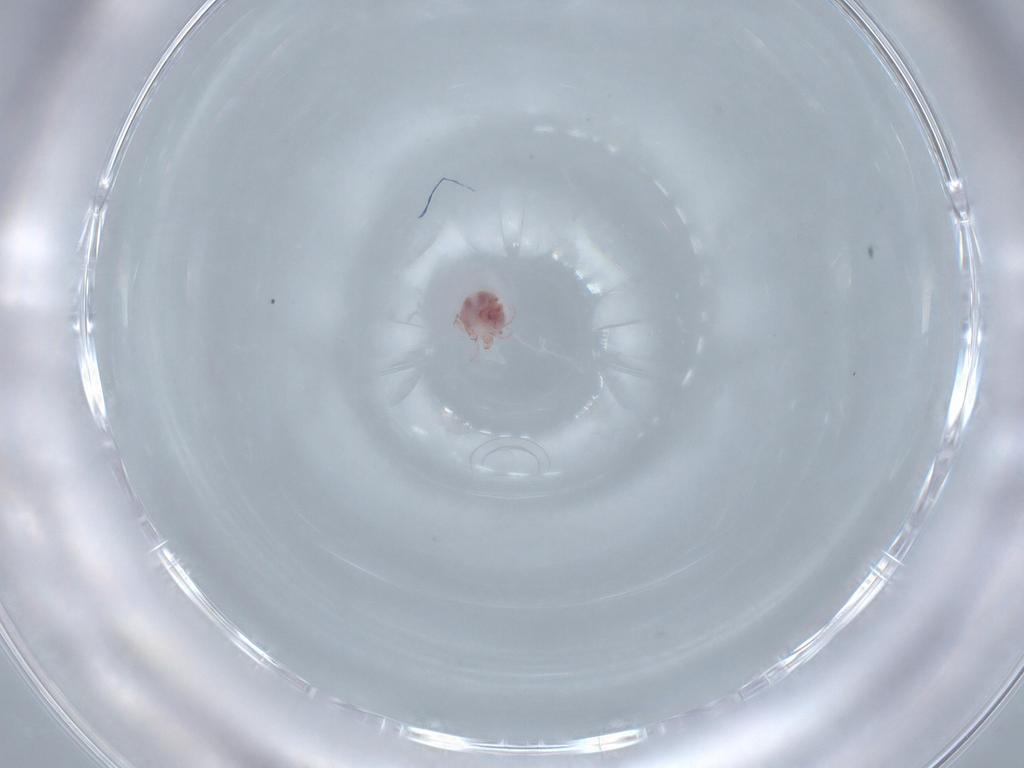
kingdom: Animalia
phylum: Arthropoda
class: Arachnida
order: Trombidiformes
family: Pionidae
